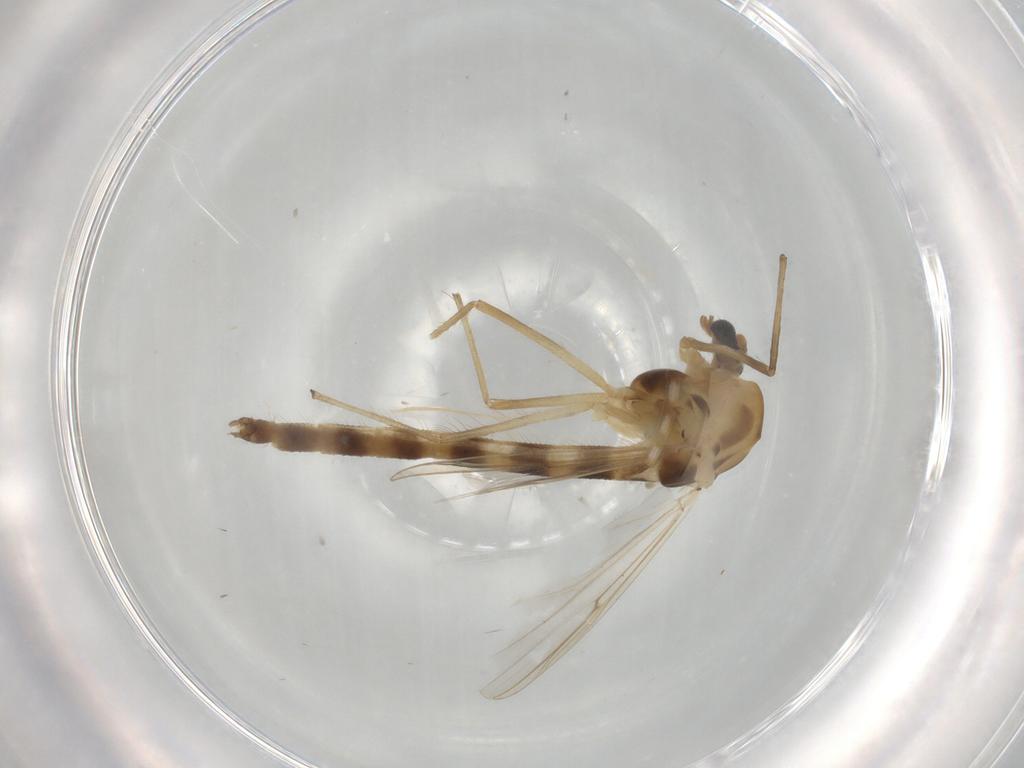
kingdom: Animalia
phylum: Arthropoda
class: Insecta
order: Diptera
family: Chironomidae
